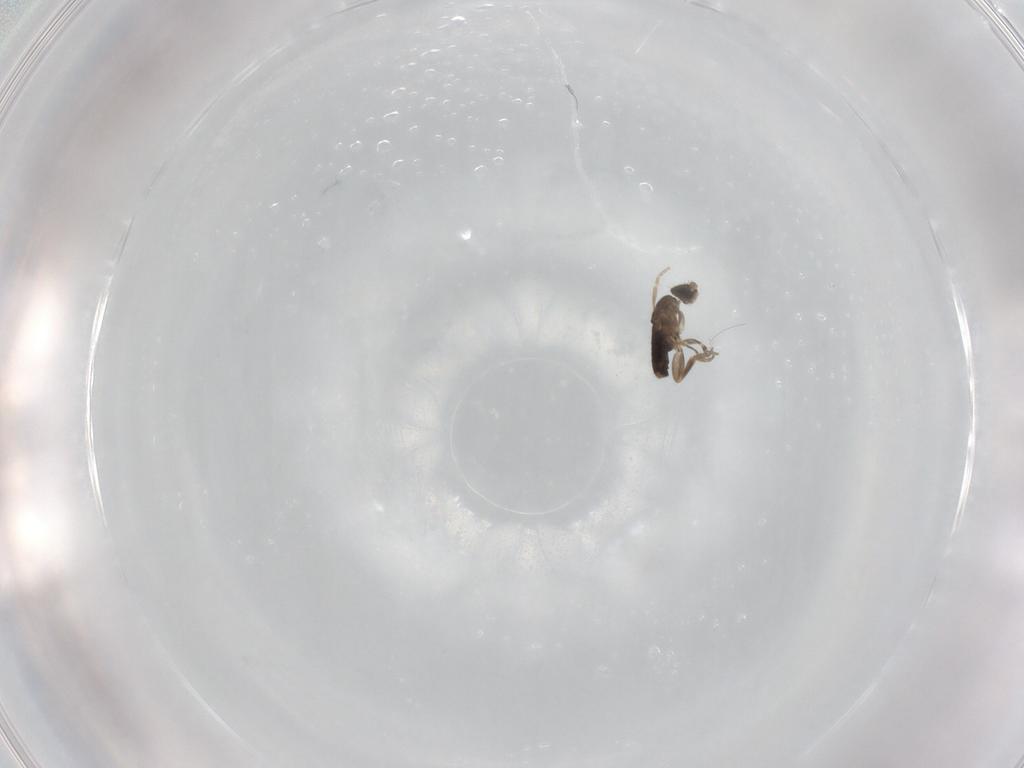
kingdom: Animalia
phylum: Arthropoda
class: Insecta
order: Diptera
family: Phoridae
